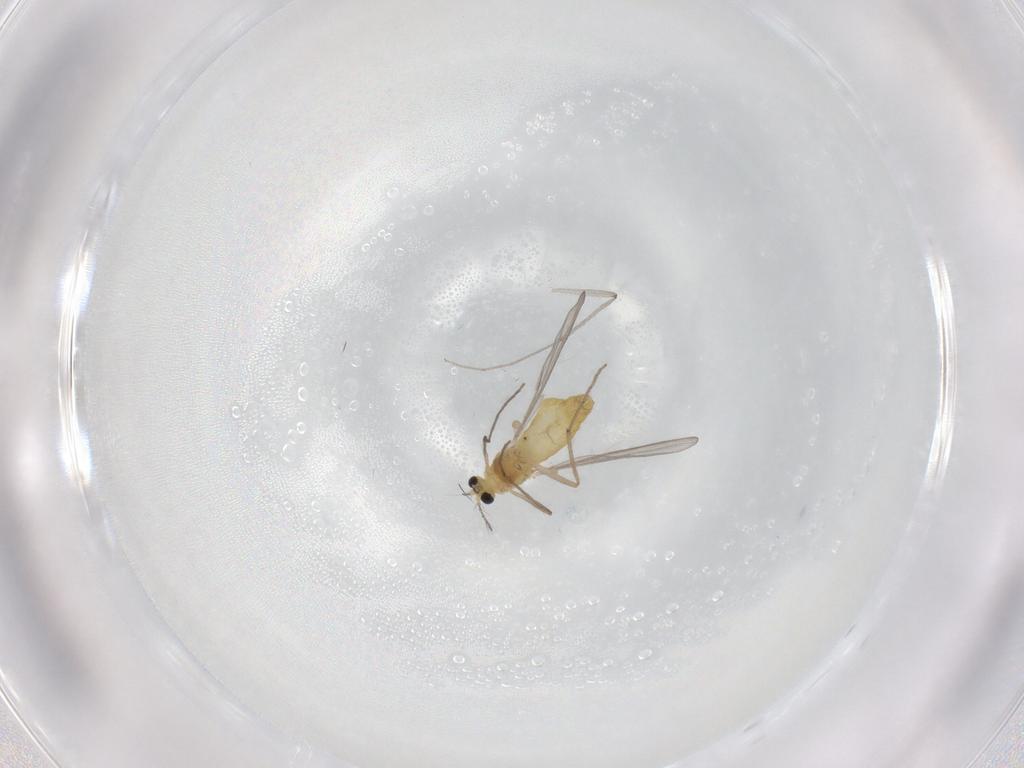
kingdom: Animalia
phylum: Arthropoda
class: Insecta
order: Diptera
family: Chironomidae
